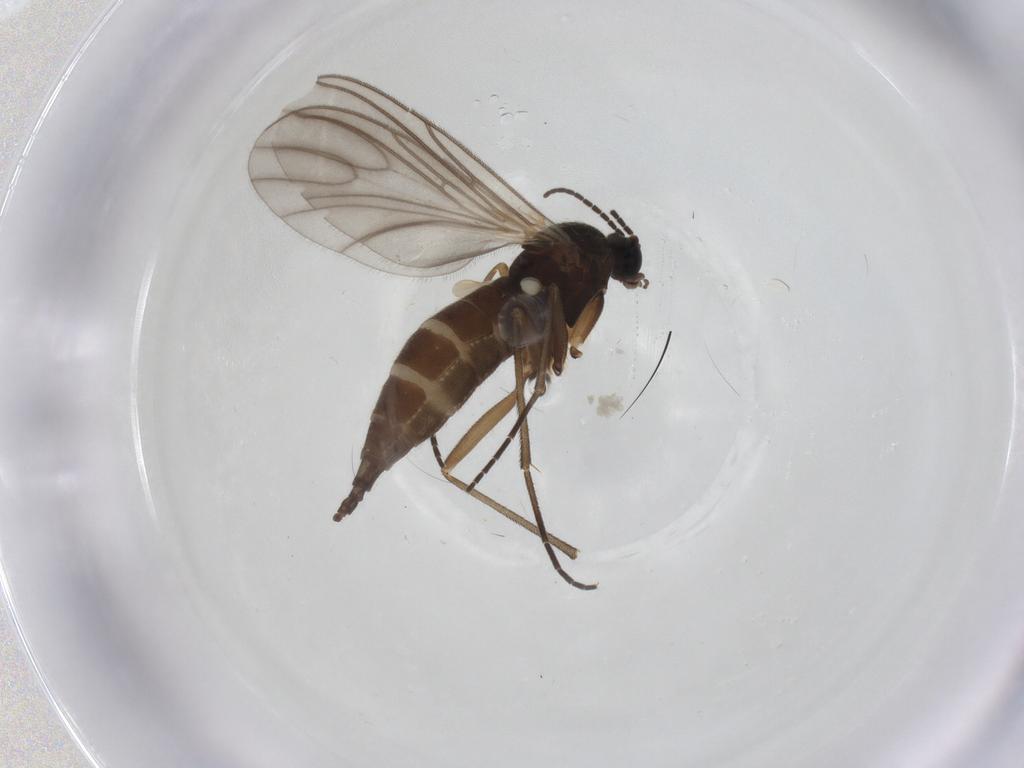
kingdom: Animalia
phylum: Arthropoda
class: Insecta
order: Diptera
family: Sciaridae
